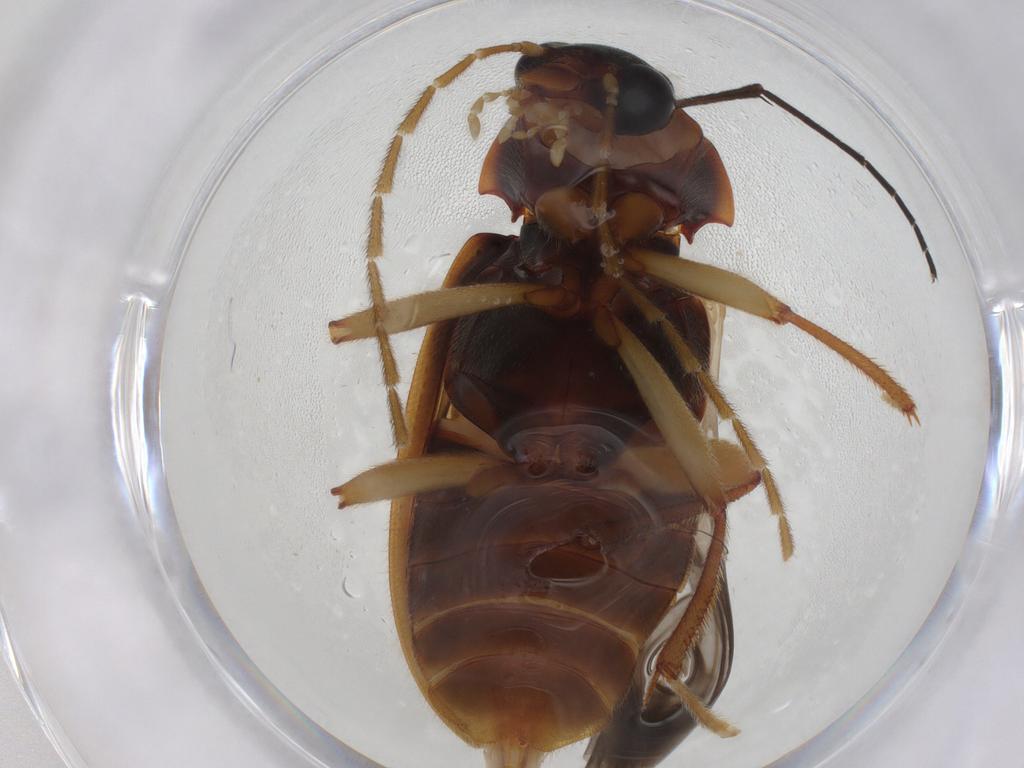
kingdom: Animalia
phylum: Arthropoda
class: Insecta
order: Coleoptera
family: Ptilodactylidae
